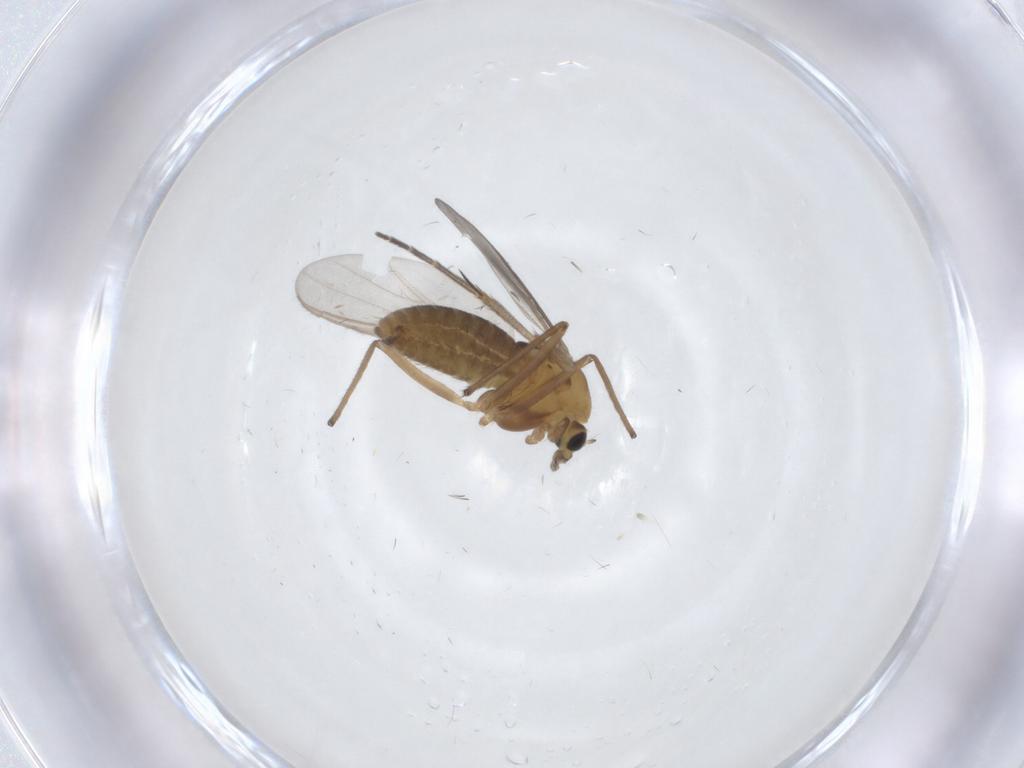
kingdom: Animalia
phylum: Arthropoda
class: Insecta
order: Diptera
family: Chironomidae
